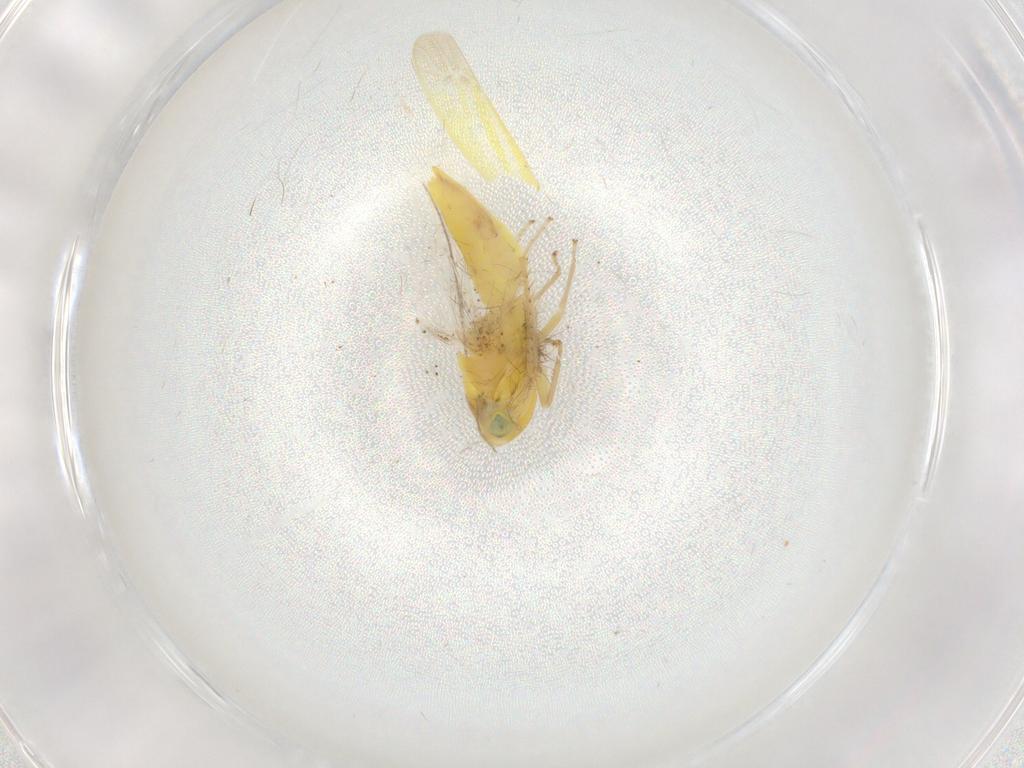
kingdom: Animalia
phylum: Arthropoda
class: Insecta
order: Hemiptera
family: Cicadellidae
